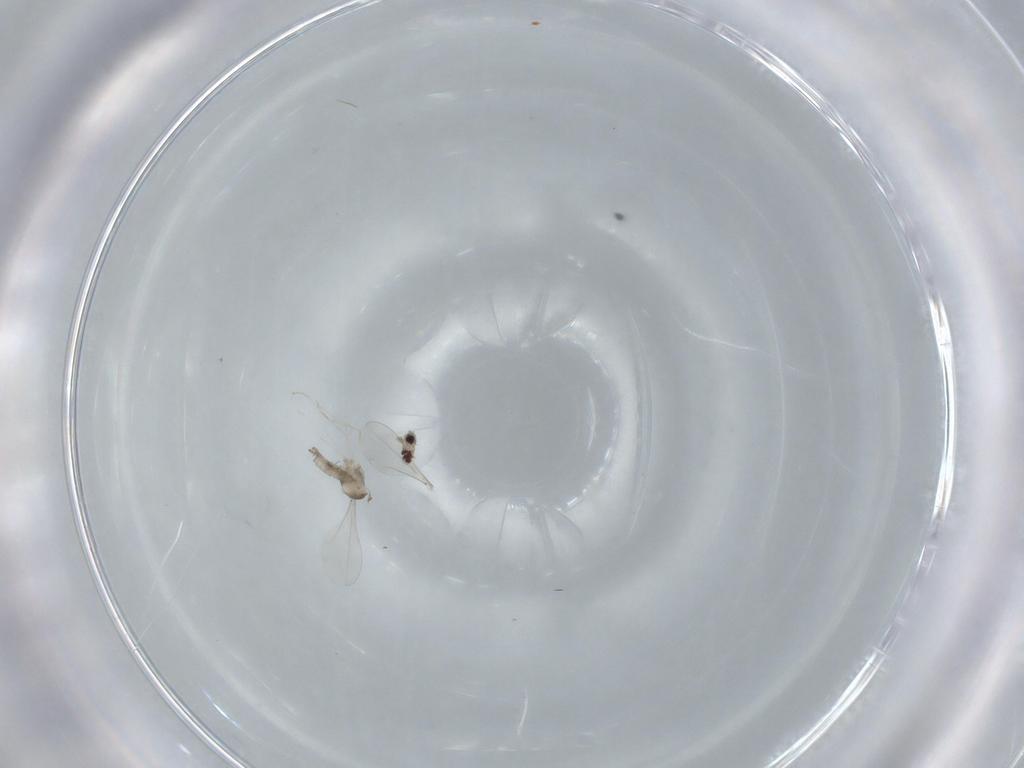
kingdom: Animalia
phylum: Arthropoda
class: Insecta
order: Diptera
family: Cecidomyiidae
